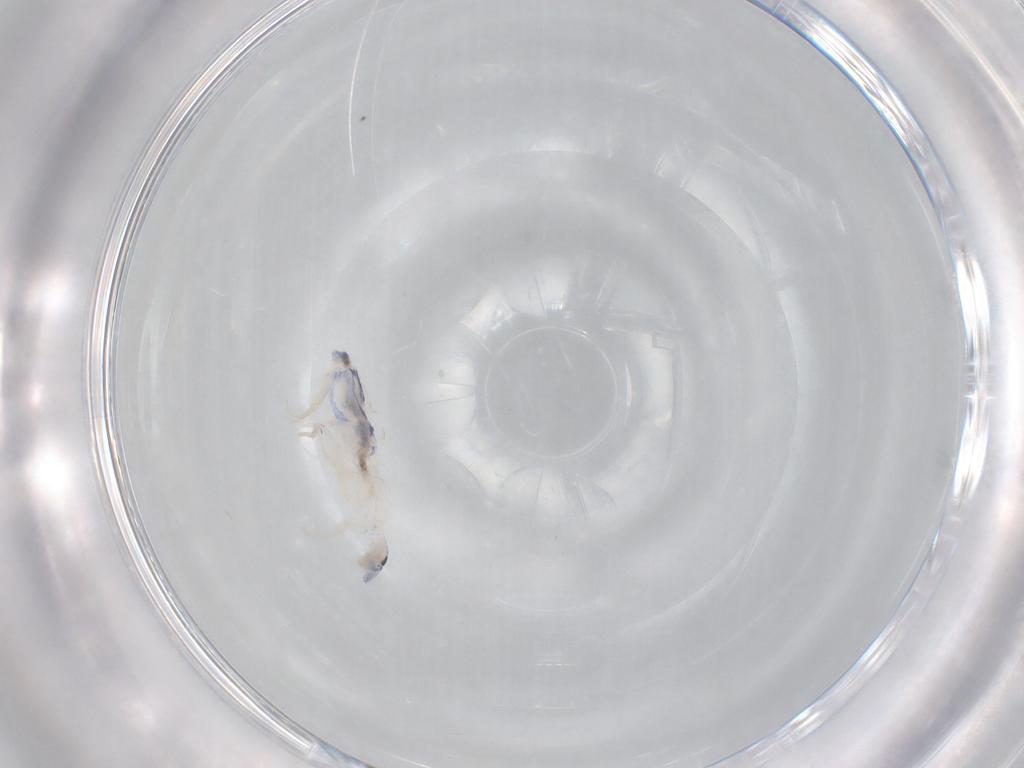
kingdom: Animalia
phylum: Arthropoda
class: Collembola
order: Entomobryomorpha
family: Entomobryidae
